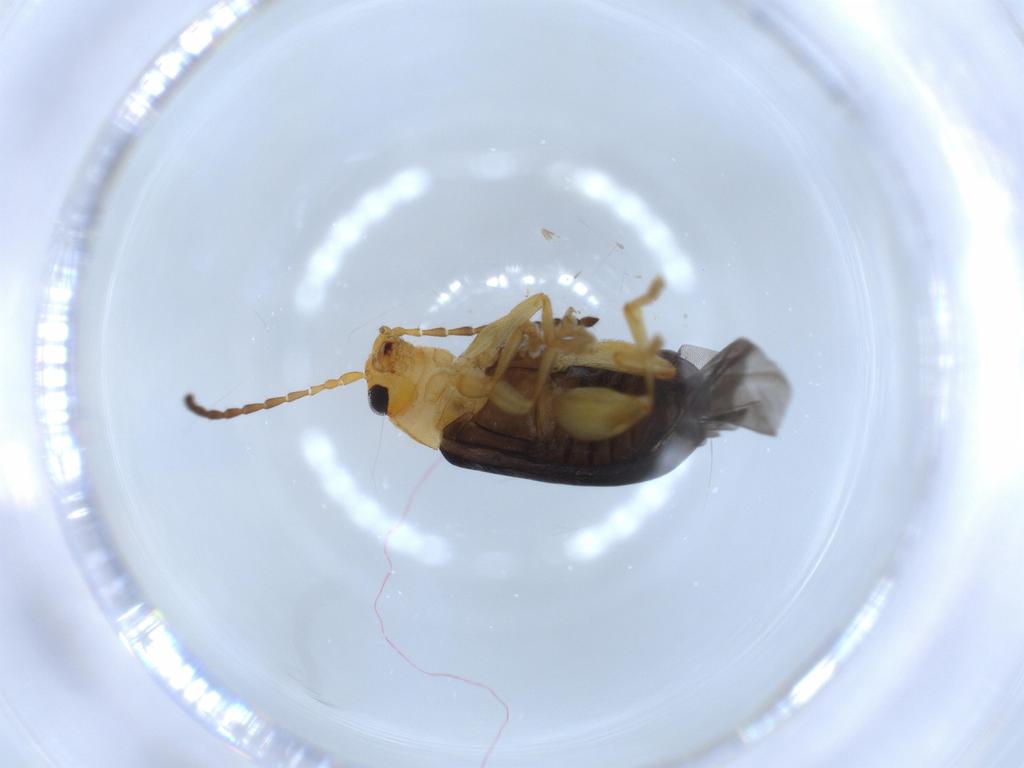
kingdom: Animalia
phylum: Arthropoda
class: Insecta
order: Coleoptera
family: Chrysomelidae
